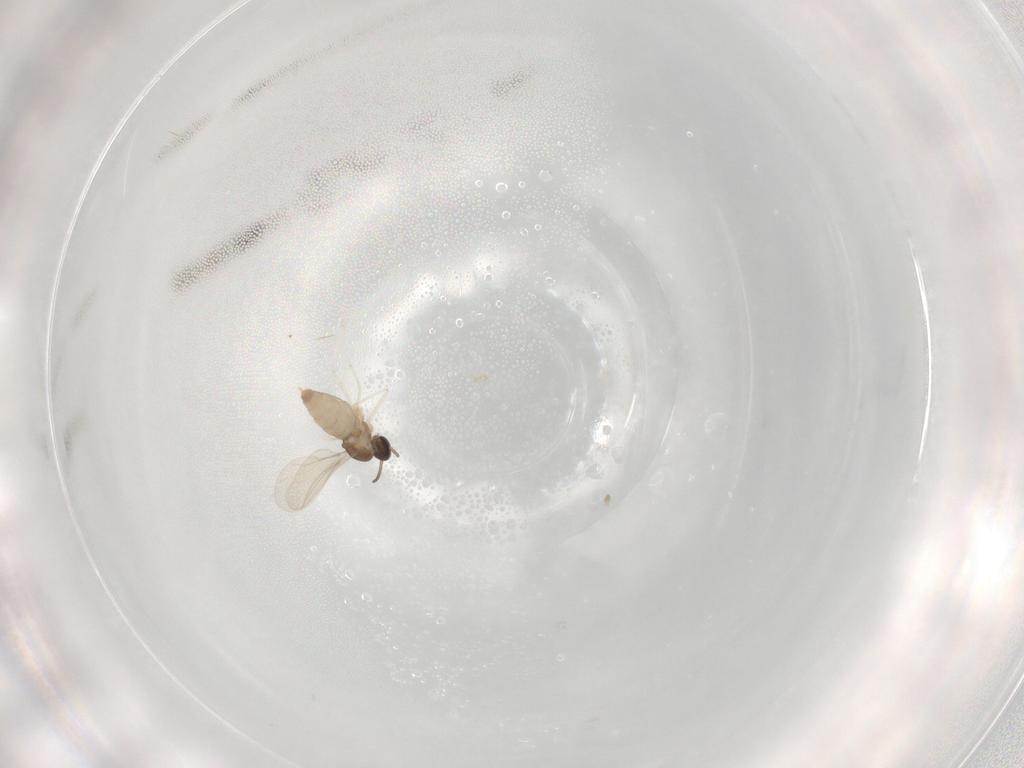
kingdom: Animalia
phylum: Arthropoda
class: Insecta
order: Diptera
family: Cecidomyiidae
